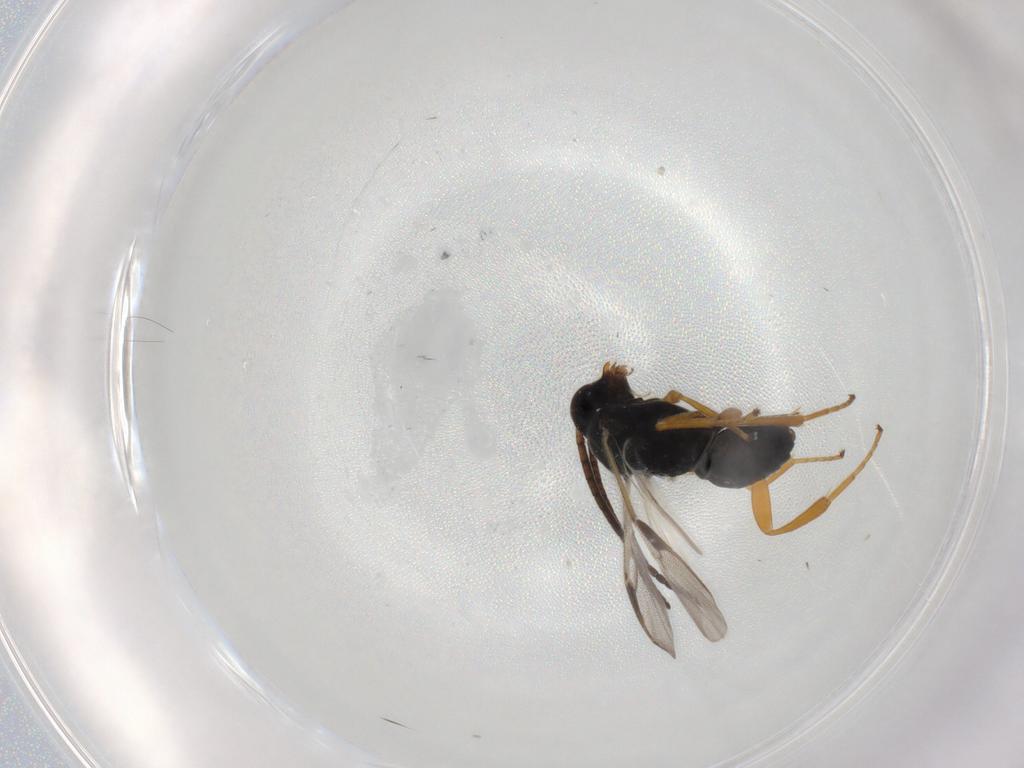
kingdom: Animalia
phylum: Arthropoda
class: Insecta
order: Hymenoptera
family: Braconidae
